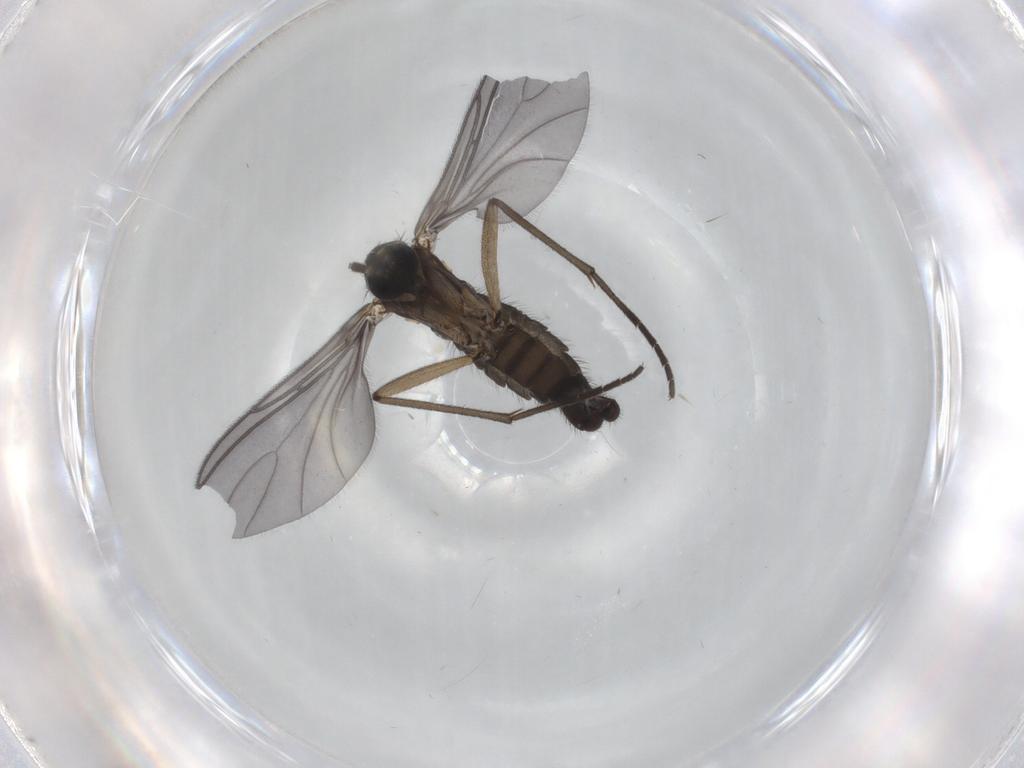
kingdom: Animalia
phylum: Arthropoda
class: Insecta
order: Diptera
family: Sciaridae
